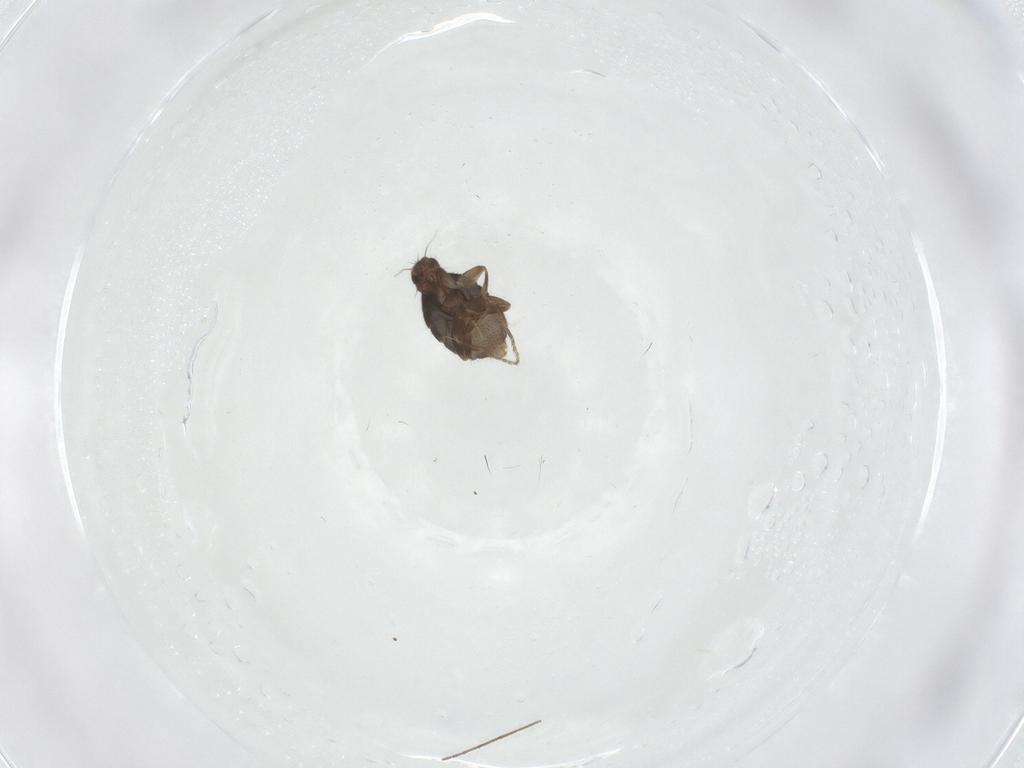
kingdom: Animalia
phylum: Arthropoda
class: Insecta
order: Diptera
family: Phoridae
